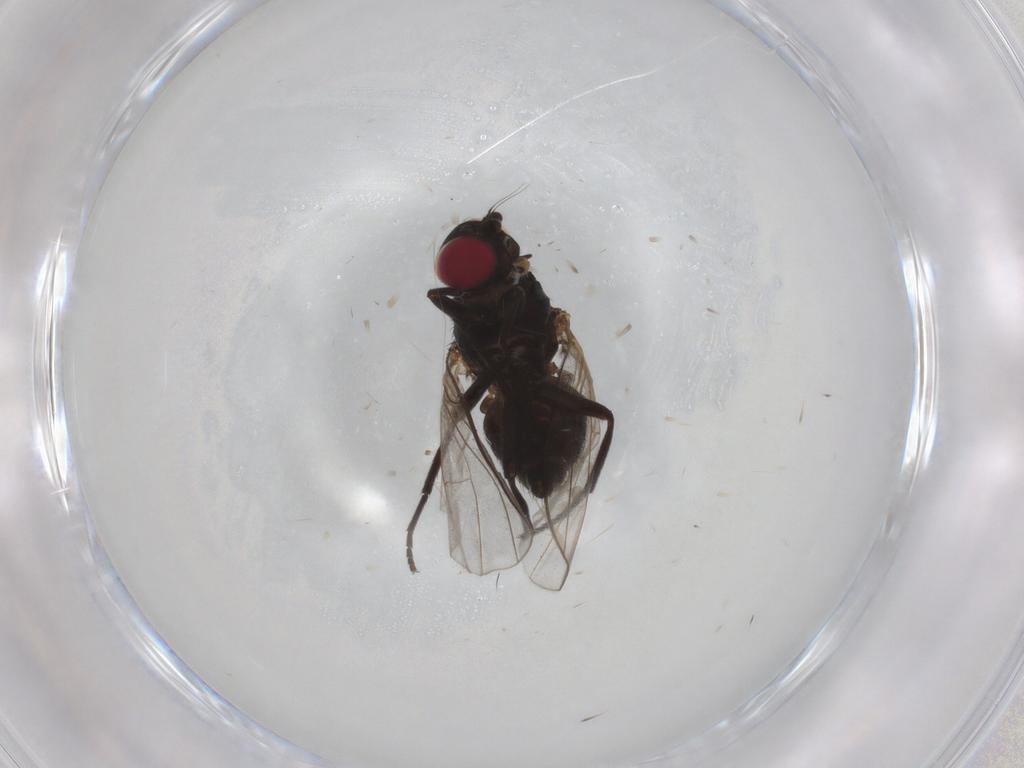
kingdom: Animalia
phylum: Arthropoda
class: Insecta
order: Diptera
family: Agromyzidae
